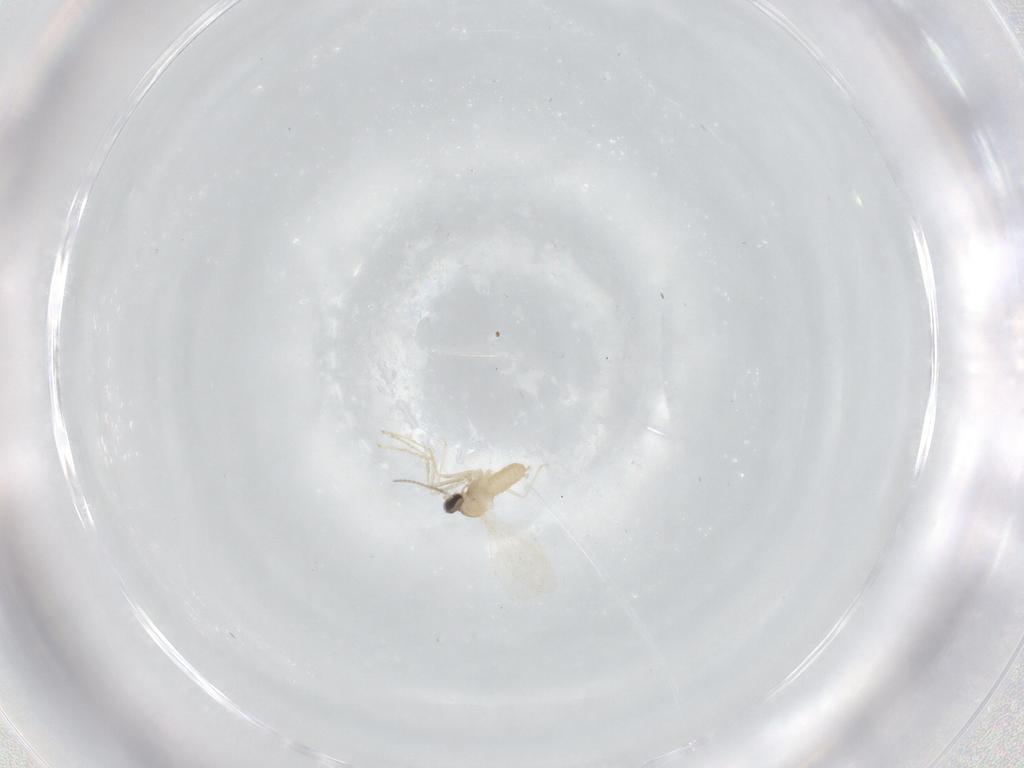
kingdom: Animalia
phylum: Arthropoda
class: Insecta
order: Diptera
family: Cecidomyiidae
